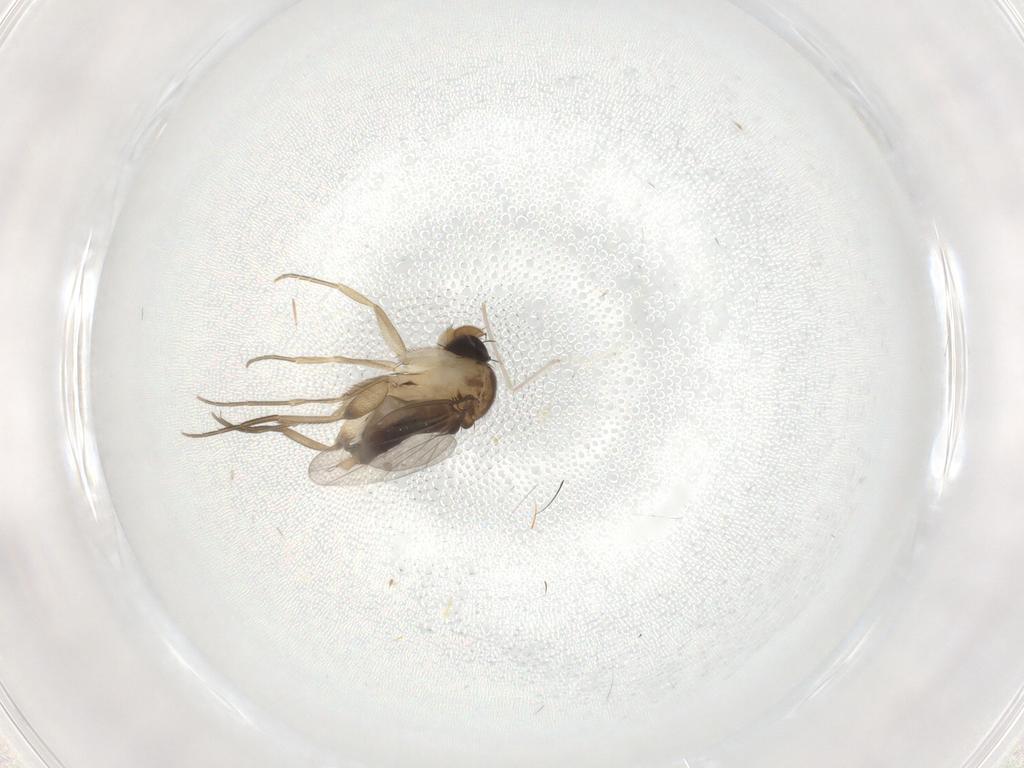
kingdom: Animalia
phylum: Arthropoda
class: Insecta
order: Diptera
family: Phoridae
